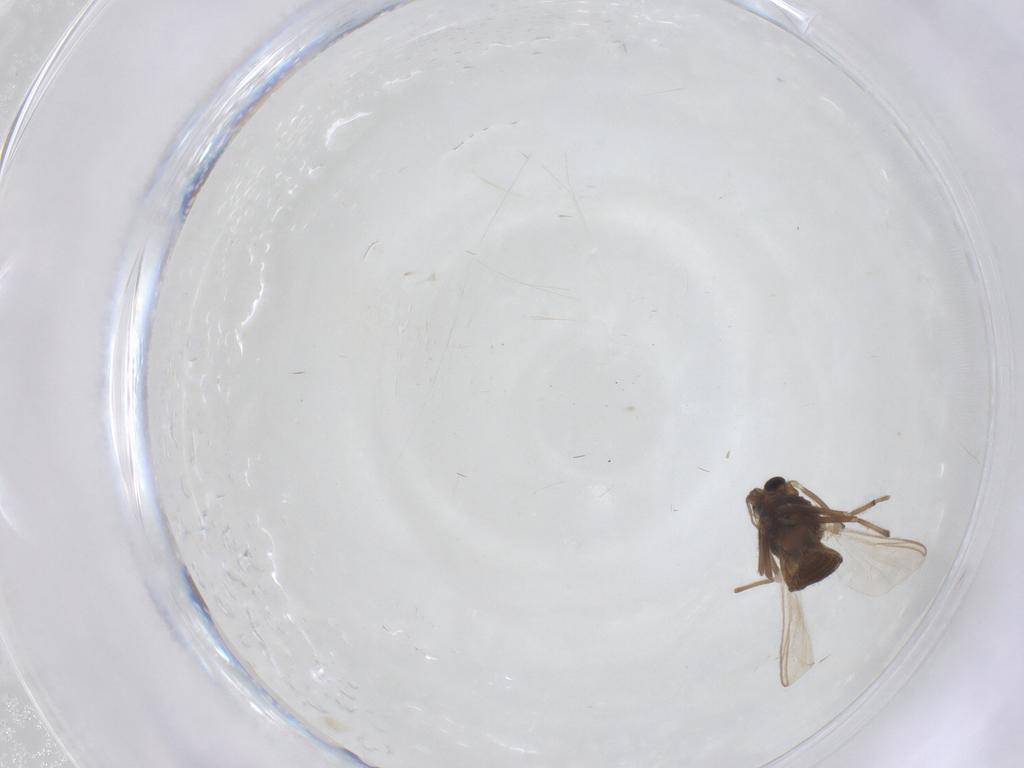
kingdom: Animalia
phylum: Arthropoda
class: Insecta
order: Diptera
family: Chironomidae
